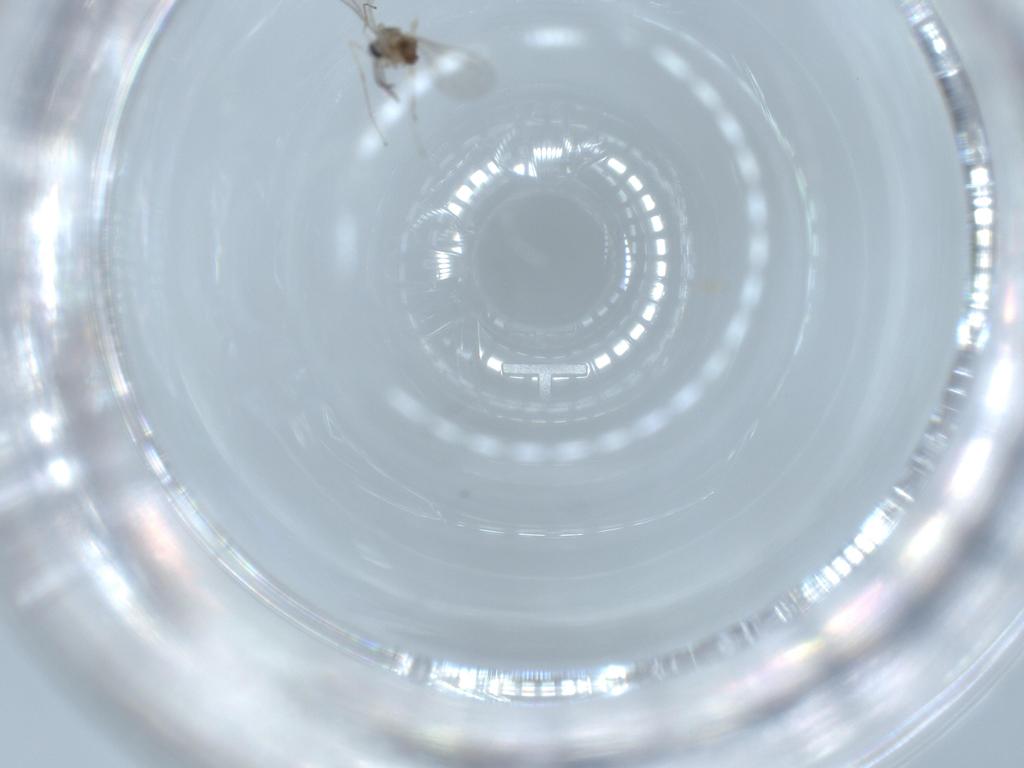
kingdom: Animalia
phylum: Arthropoda
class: Insecta
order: Diptera
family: Cecidomyiidae
